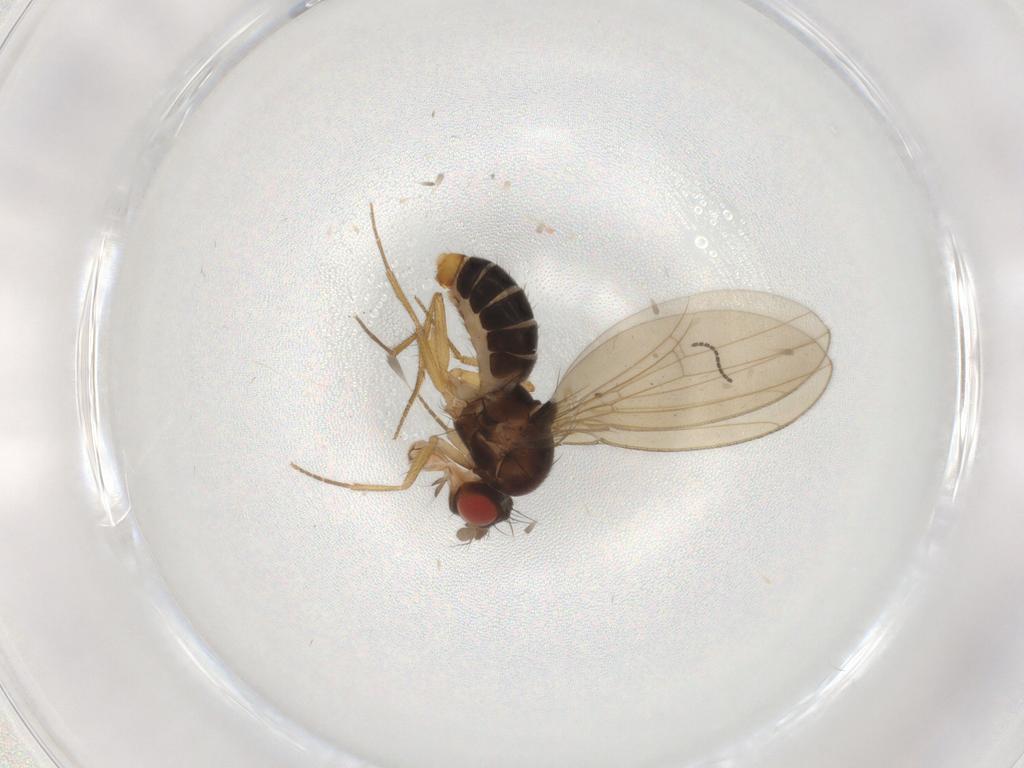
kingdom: Animalia
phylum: Arthropoda
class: Insecta
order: Diptera
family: Drosophilidae
